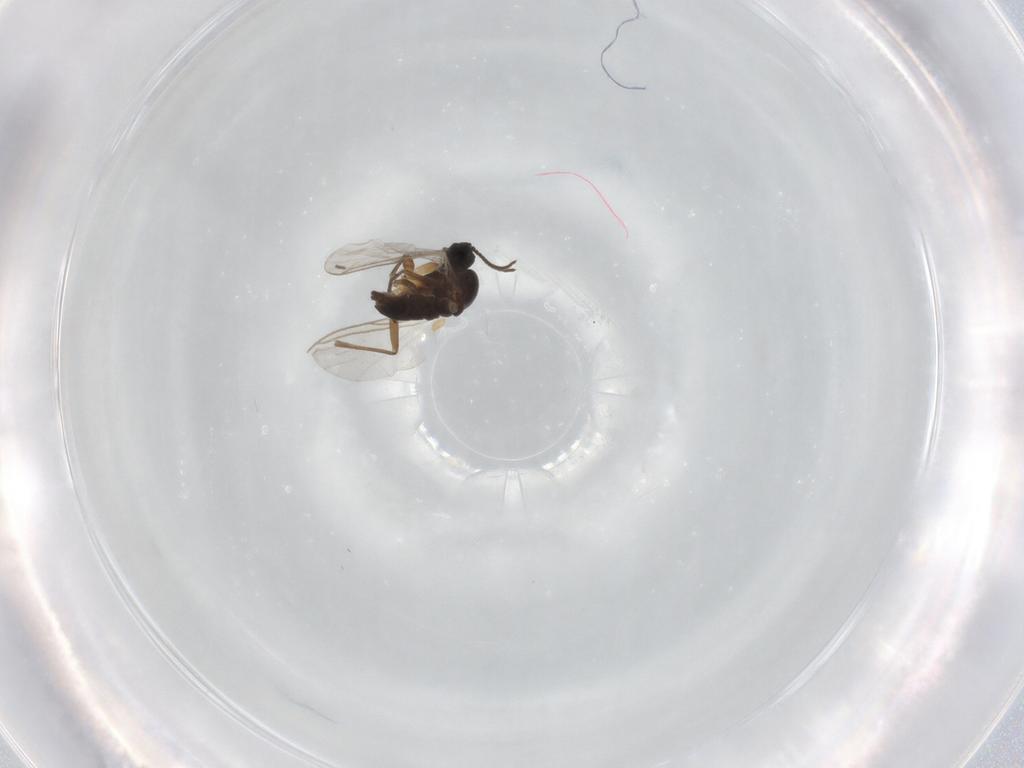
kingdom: Animalia
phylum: Arthropoda
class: Insecta
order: Diptera
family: Sciaridae
